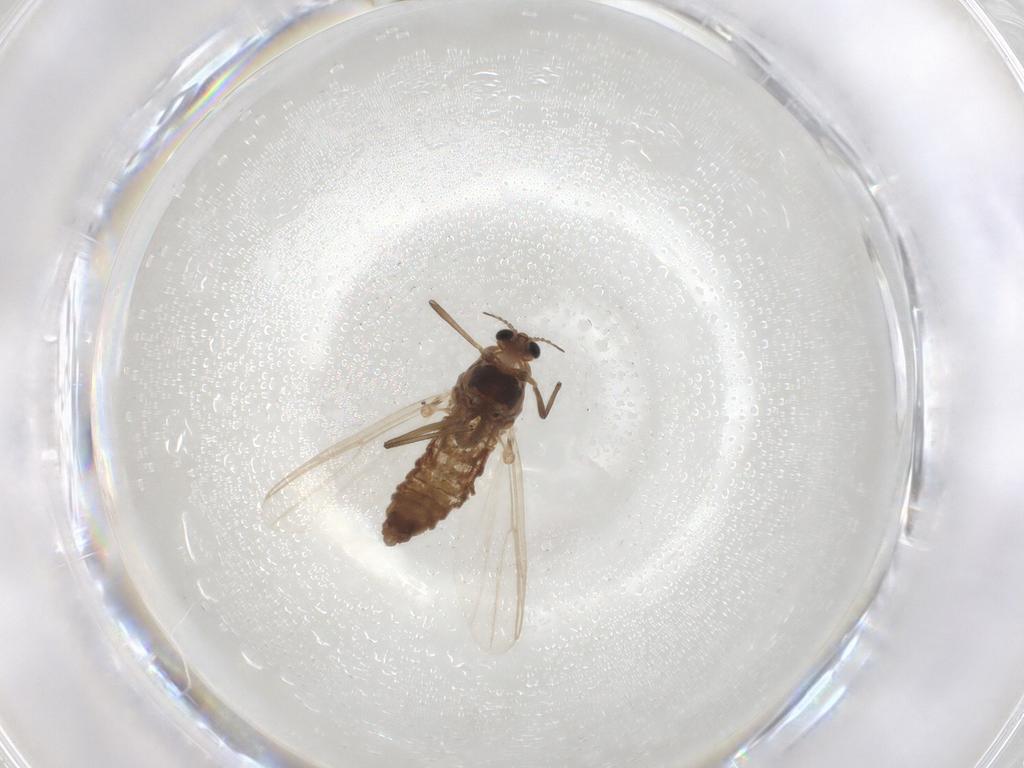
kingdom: Animalia
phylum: Arthropoda
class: Insecta
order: Diptera
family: Chironomidae
